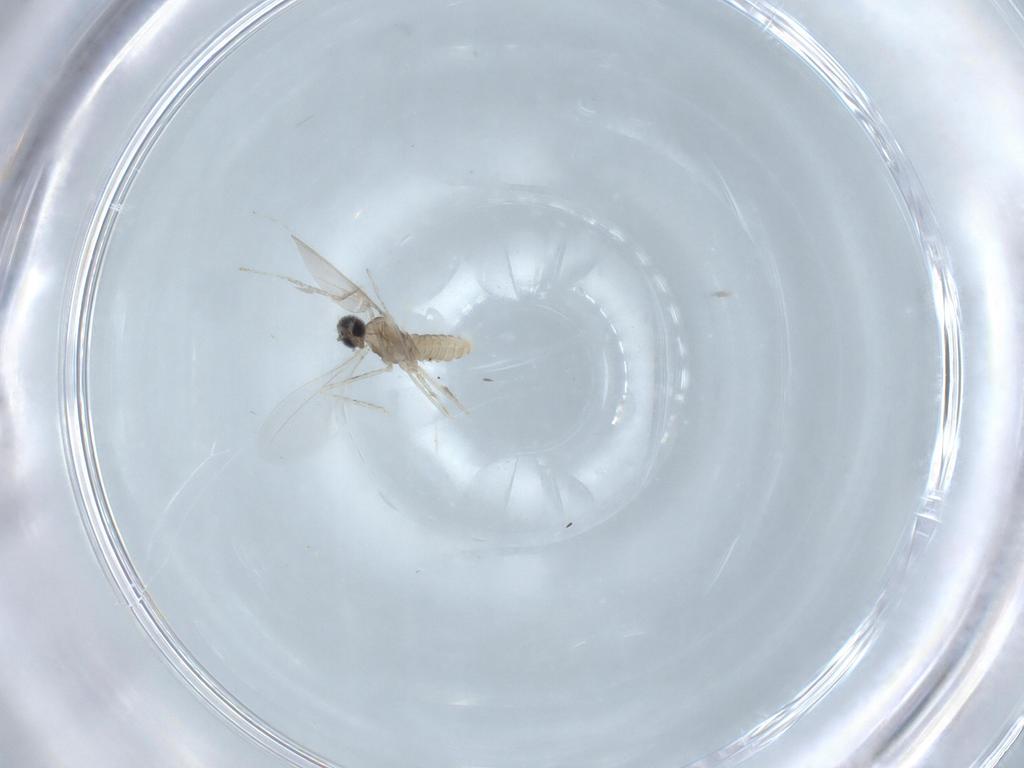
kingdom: Animalia
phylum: Arthropoda
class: Insecta
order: Diptera
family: Cecidomyiidae
